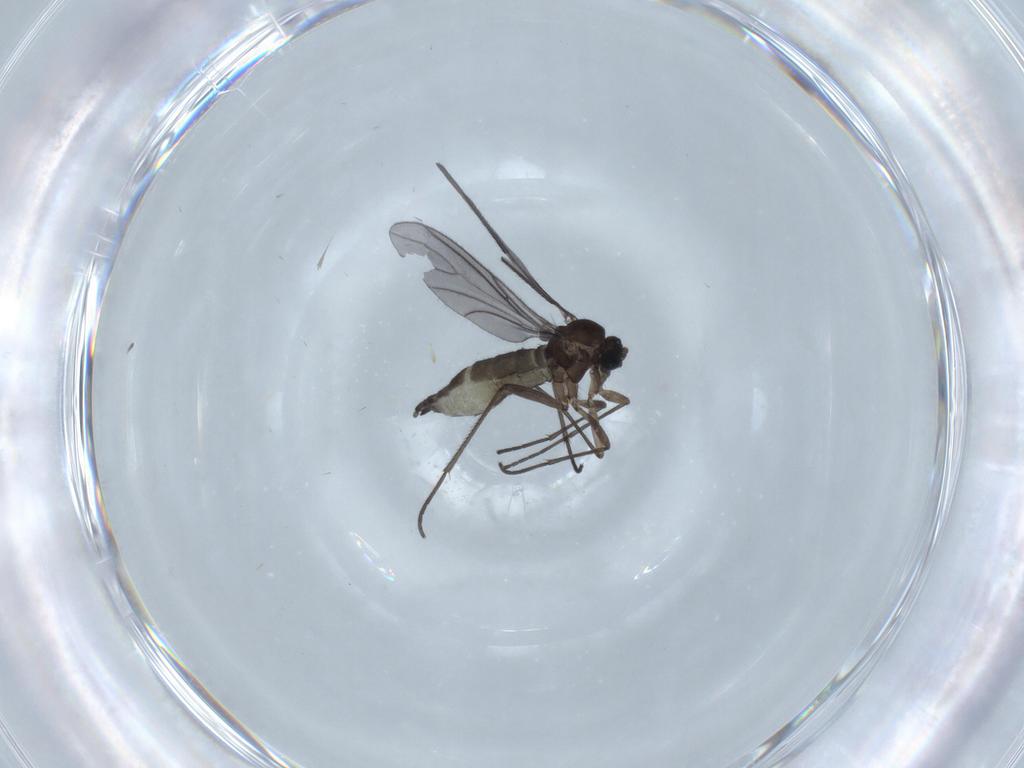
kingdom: Animalia
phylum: Arthropoda
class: Insecta
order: Diptera
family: Sciaridae
